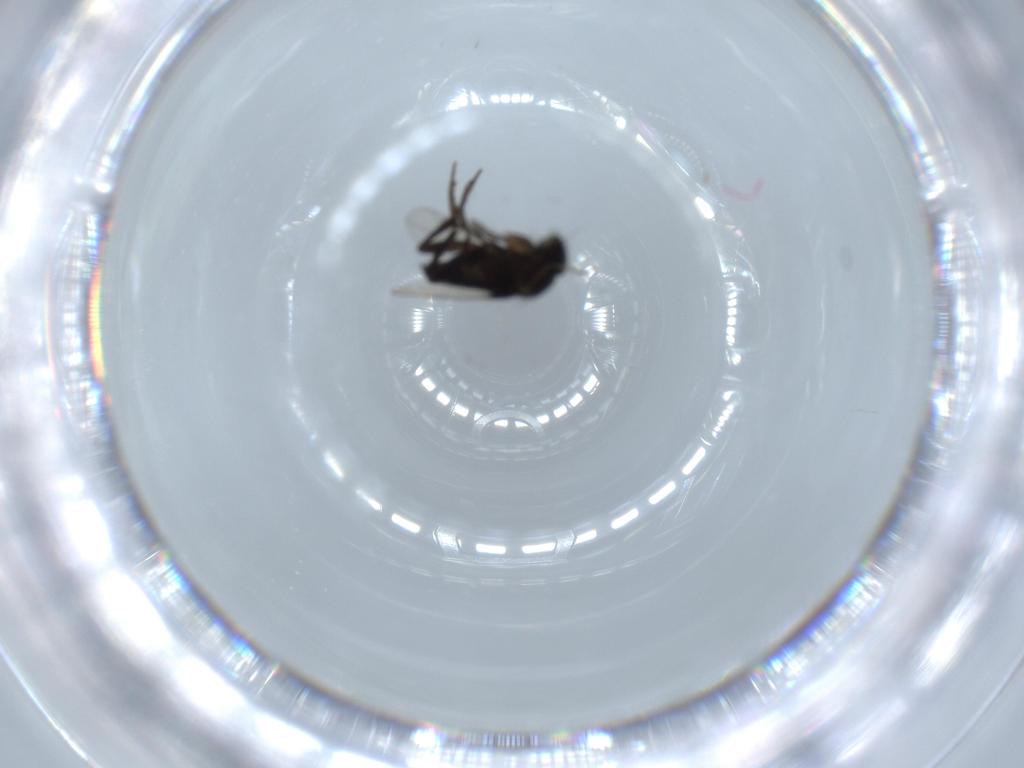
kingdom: Animalia
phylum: Arthropoda
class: Insecta
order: Diptera
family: Phoridae
